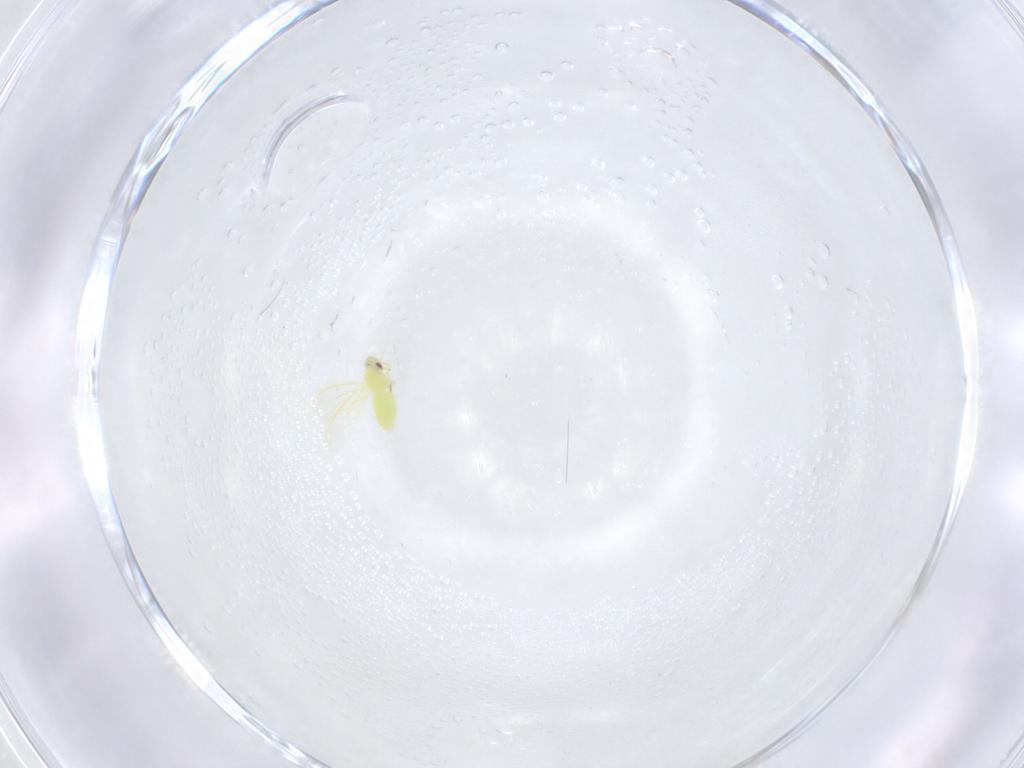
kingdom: Animalia
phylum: Arthropoda
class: Insecta
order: Hemiptera
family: Aleyrodidae
